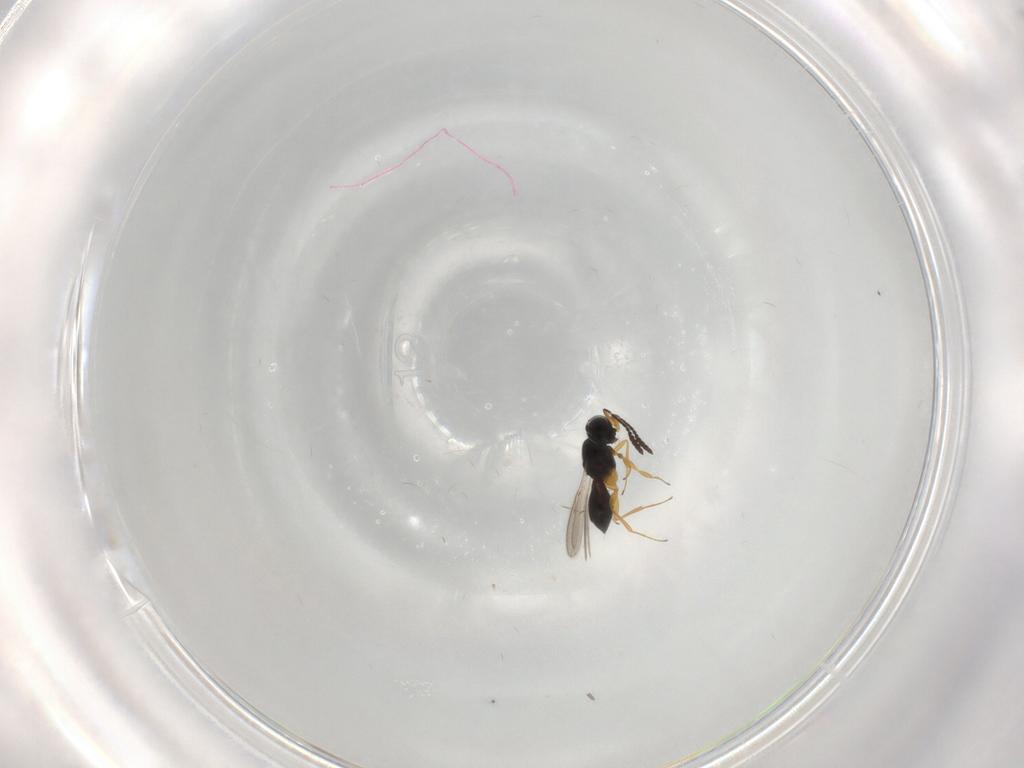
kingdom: Animalia
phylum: Arthropoda
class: Insecta
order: Hymenoptera
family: Scelionidae
